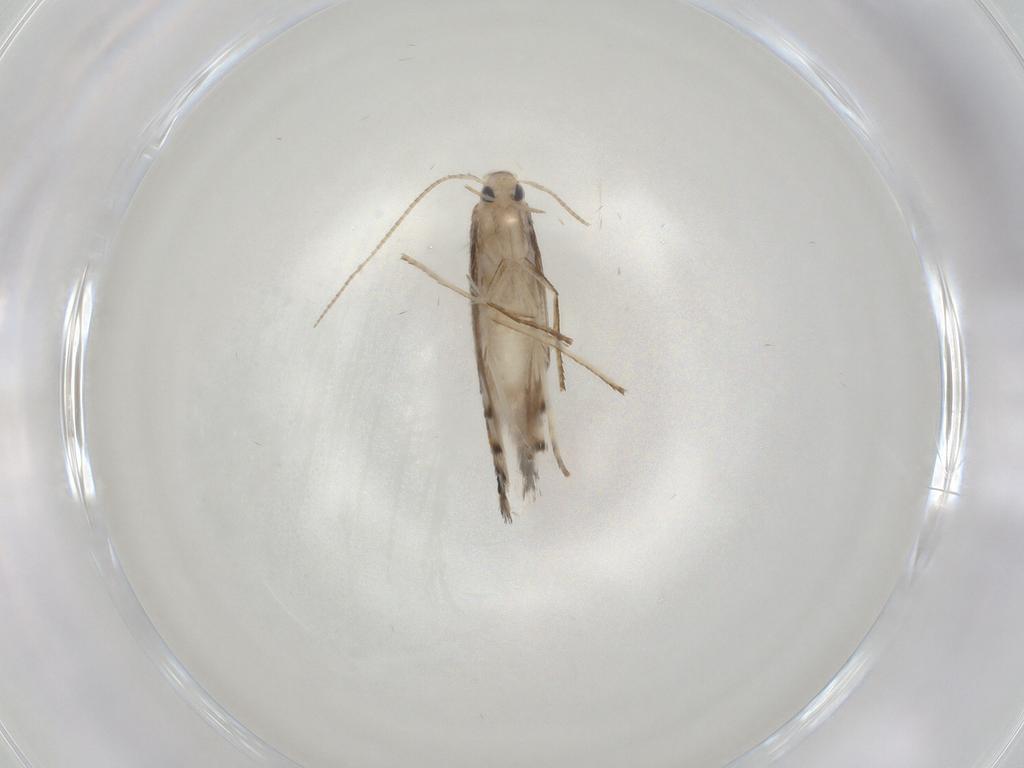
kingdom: Animalia
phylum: Arthropoda
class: Insecta
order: Lepidoptera
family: Gracillariidae
